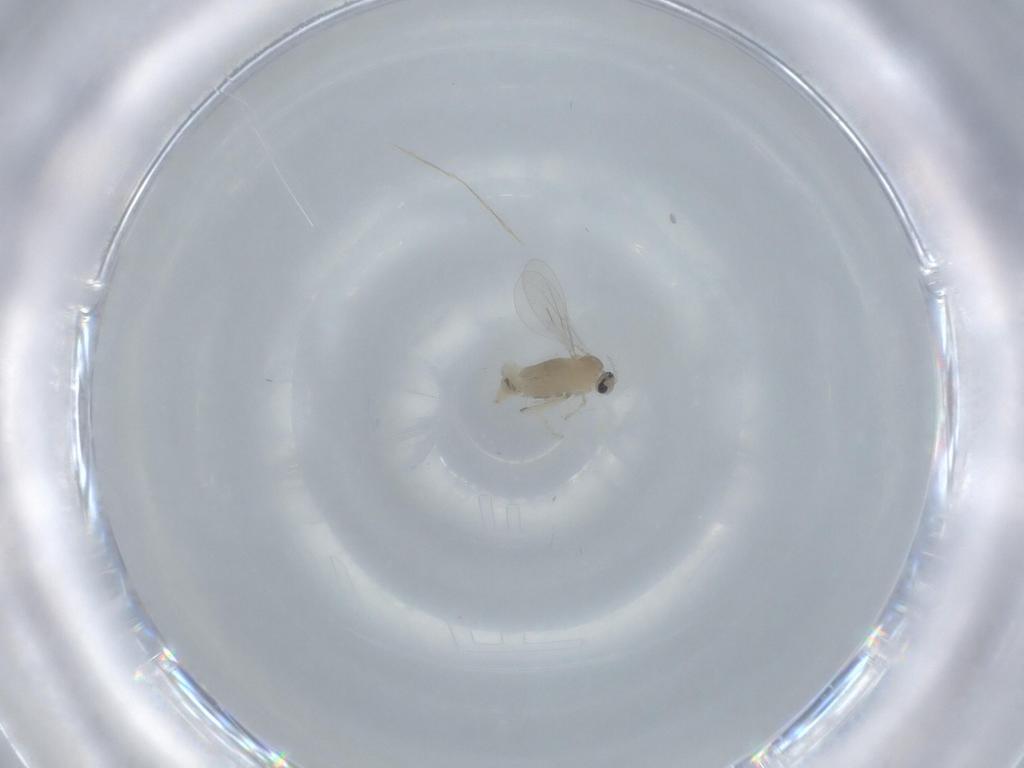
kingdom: Animalia
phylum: Arthropoda
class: Insecta
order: Diptera
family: Cecidomyiidae
